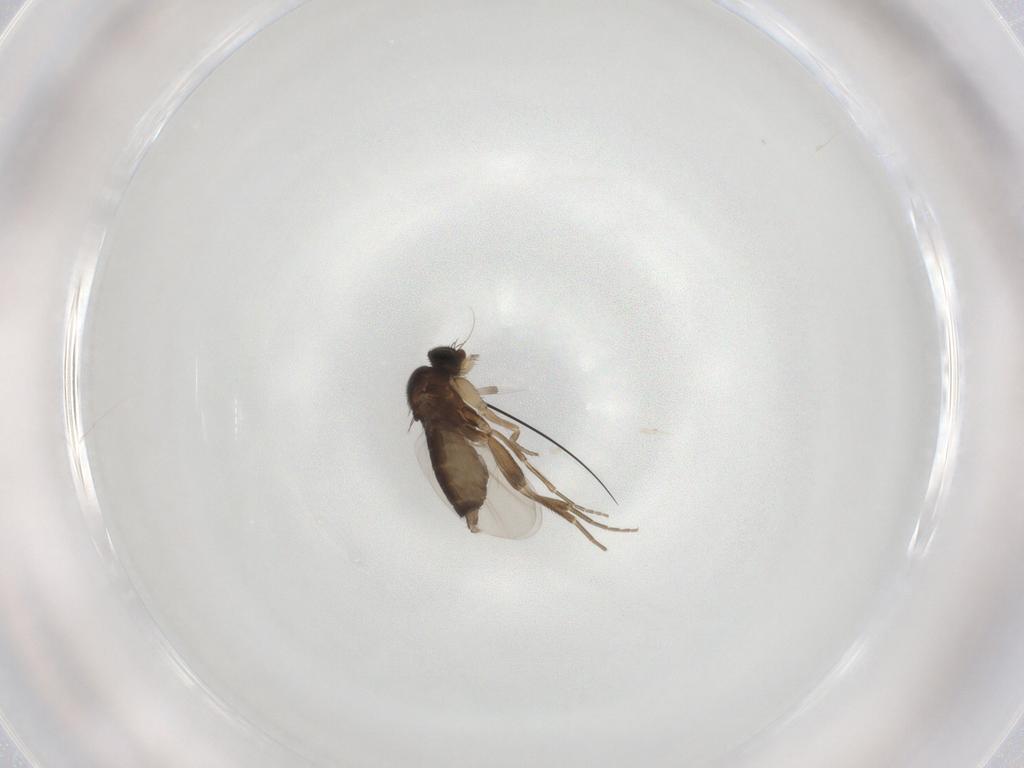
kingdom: Animalia
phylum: Arthropoda
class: Insecta
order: Diptera
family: Phoridae
